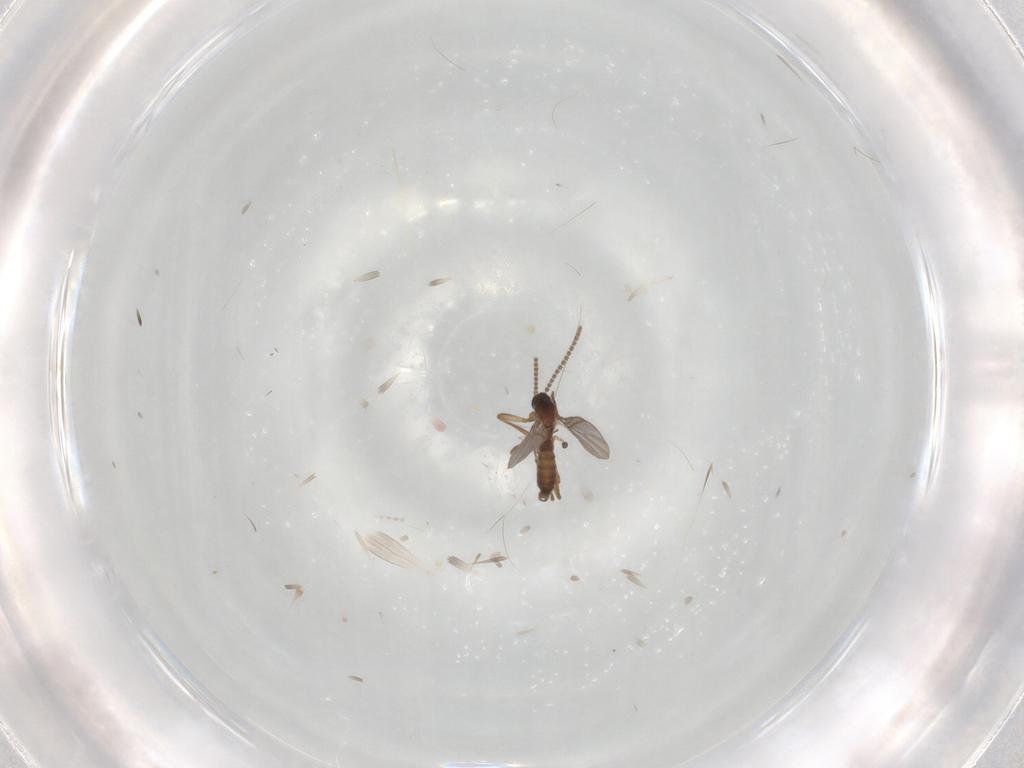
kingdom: Animalia
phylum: Arthropoda
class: Insecta
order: Diptera
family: Cecidomyiidae
